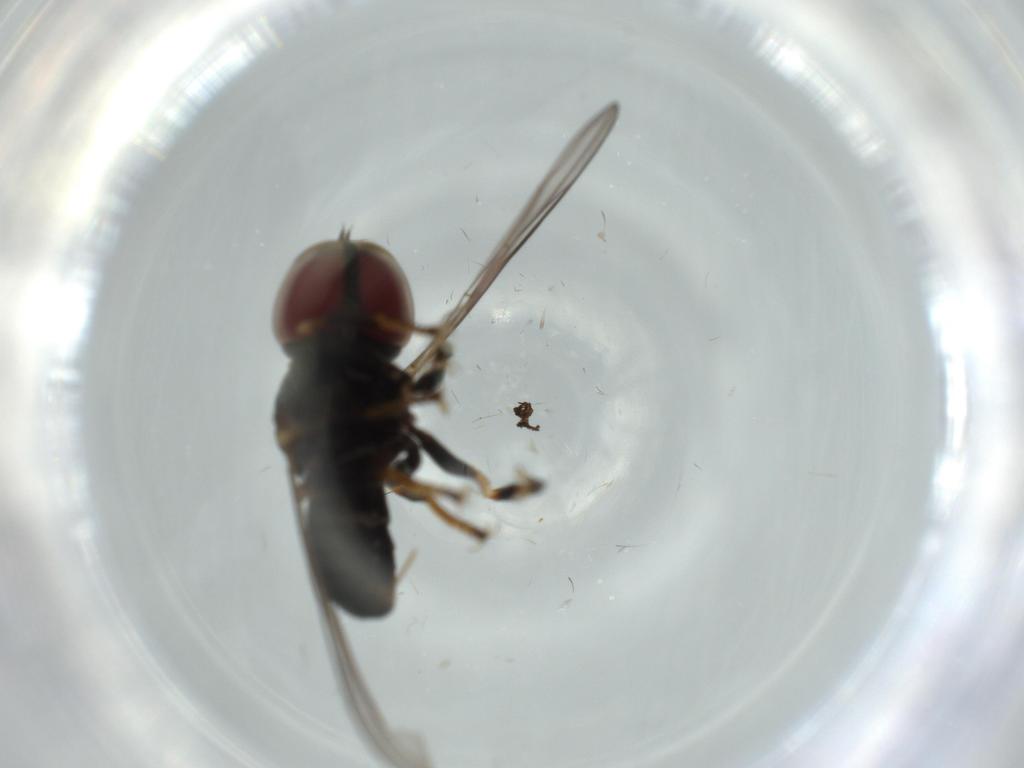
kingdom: Animalia
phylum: Arthropoda
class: Insecta
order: Diptera
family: Pipunculidae
